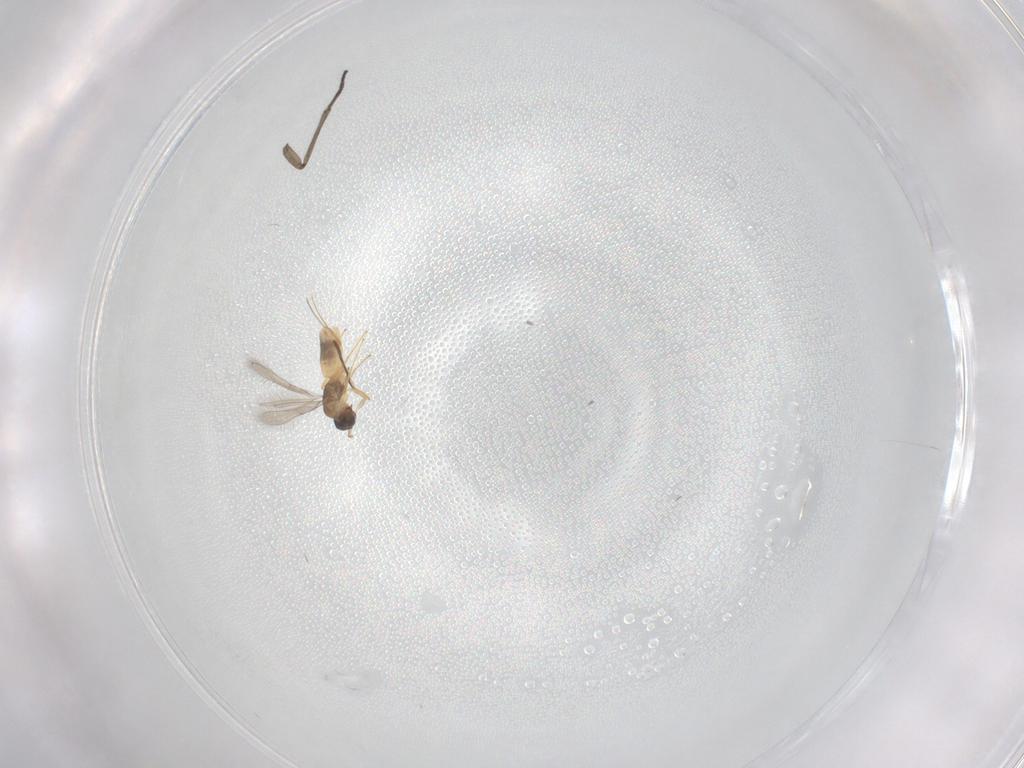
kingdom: Animalia
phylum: Arthropoda
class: Insecta
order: Hymenoptera
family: Mymaridae
